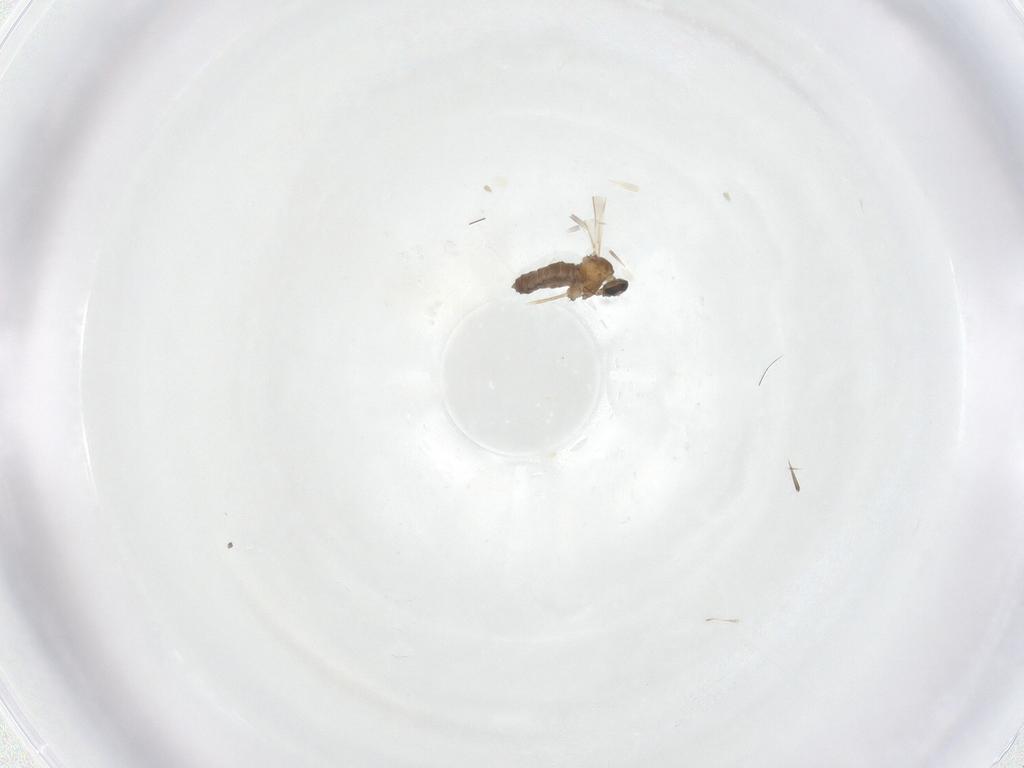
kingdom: Animalia
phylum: Arthropoda
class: Insecta
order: Diptera
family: Cecidomyiidae
